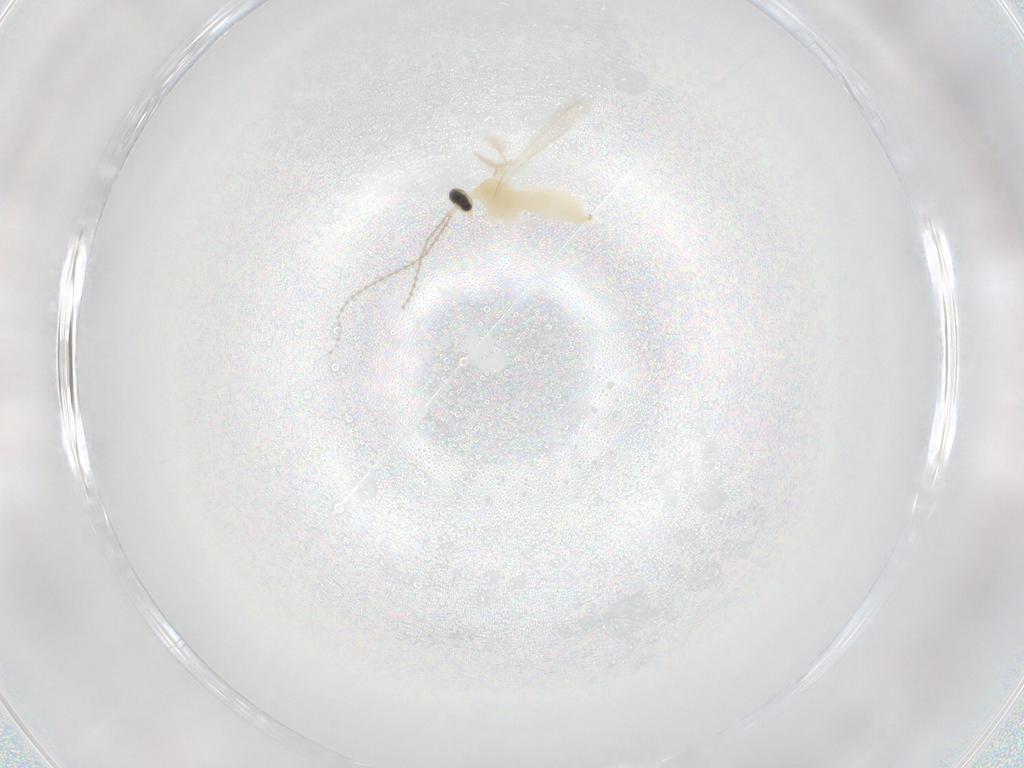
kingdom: Animalia
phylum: Arthropoda
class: Insecta
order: Diptera
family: Cecidomyiidae
